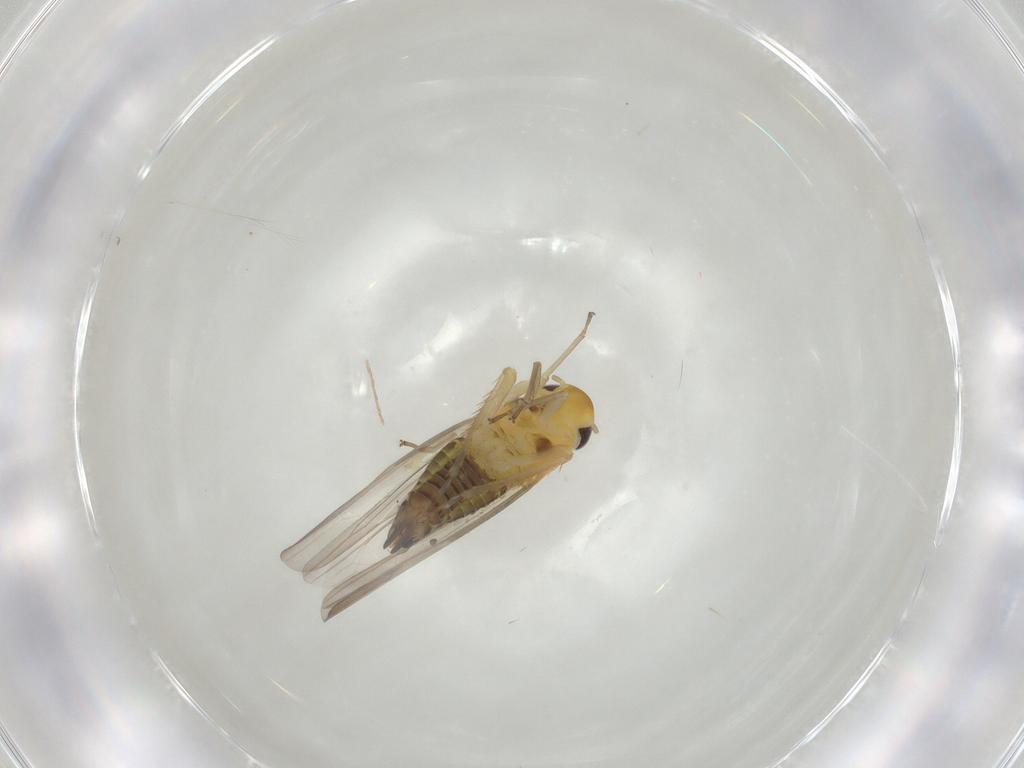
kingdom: Animalia
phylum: Arthropoda
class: Insecta
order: Hemiptera
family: Cicadellidae
